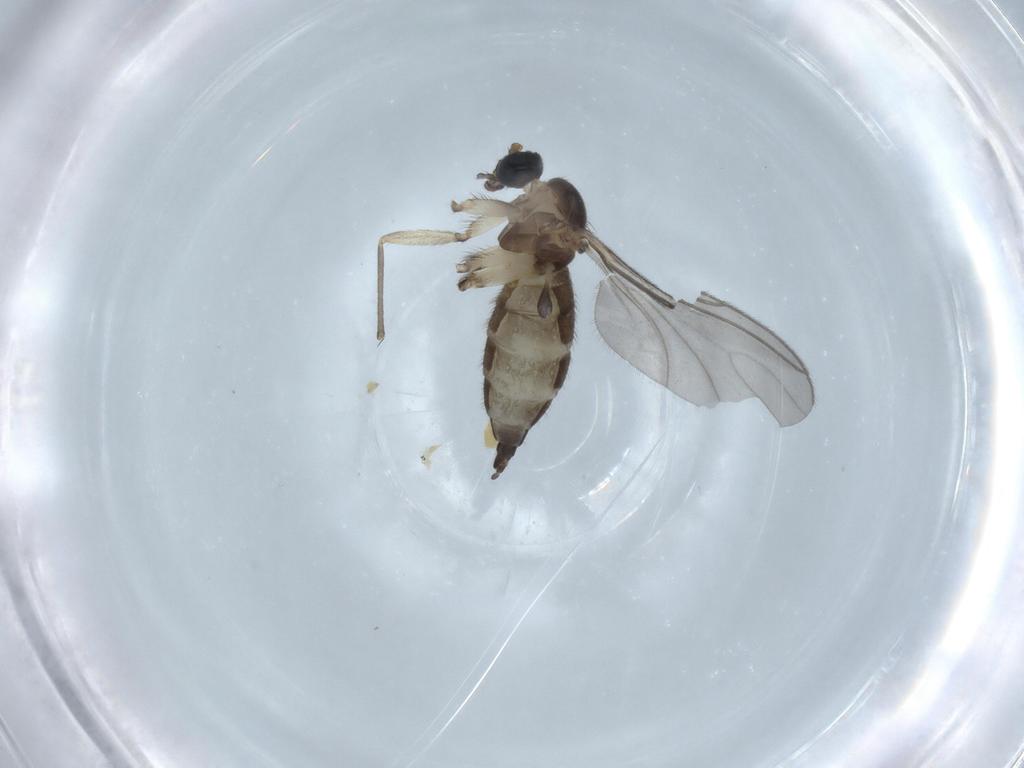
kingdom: Animalia
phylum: Arthropoda
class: Insecta
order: Diptera
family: Sciaridae
